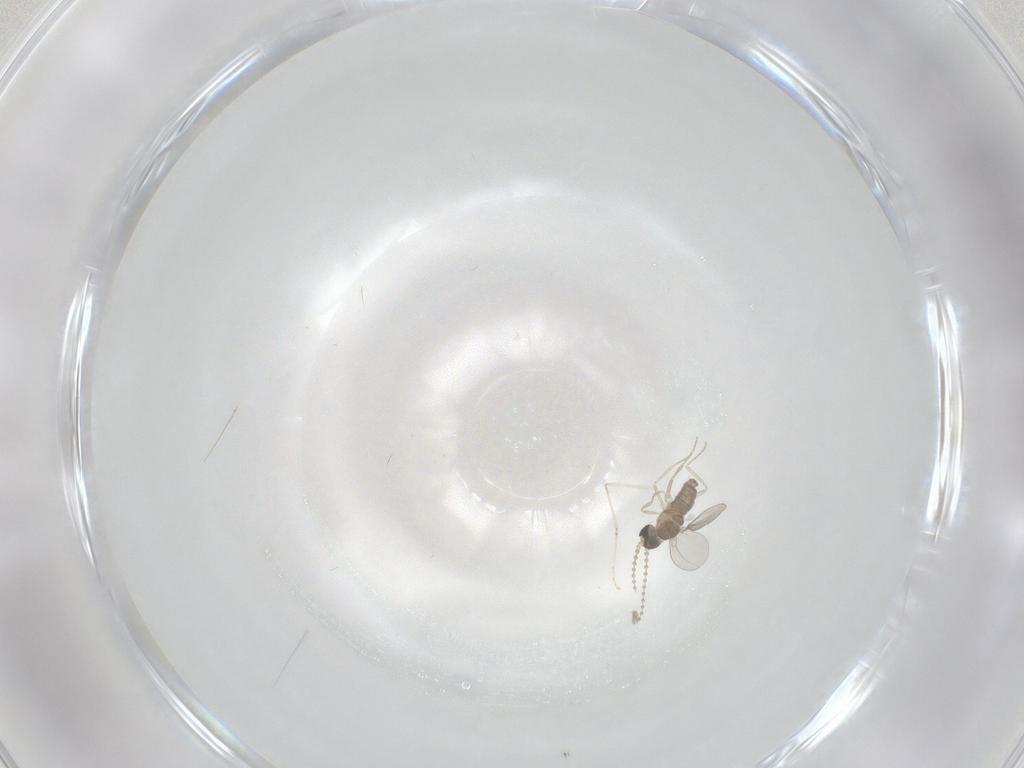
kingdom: Animalia
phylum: Arthropoda
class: Insecta
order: Diptera
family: Cecidomyiidae
